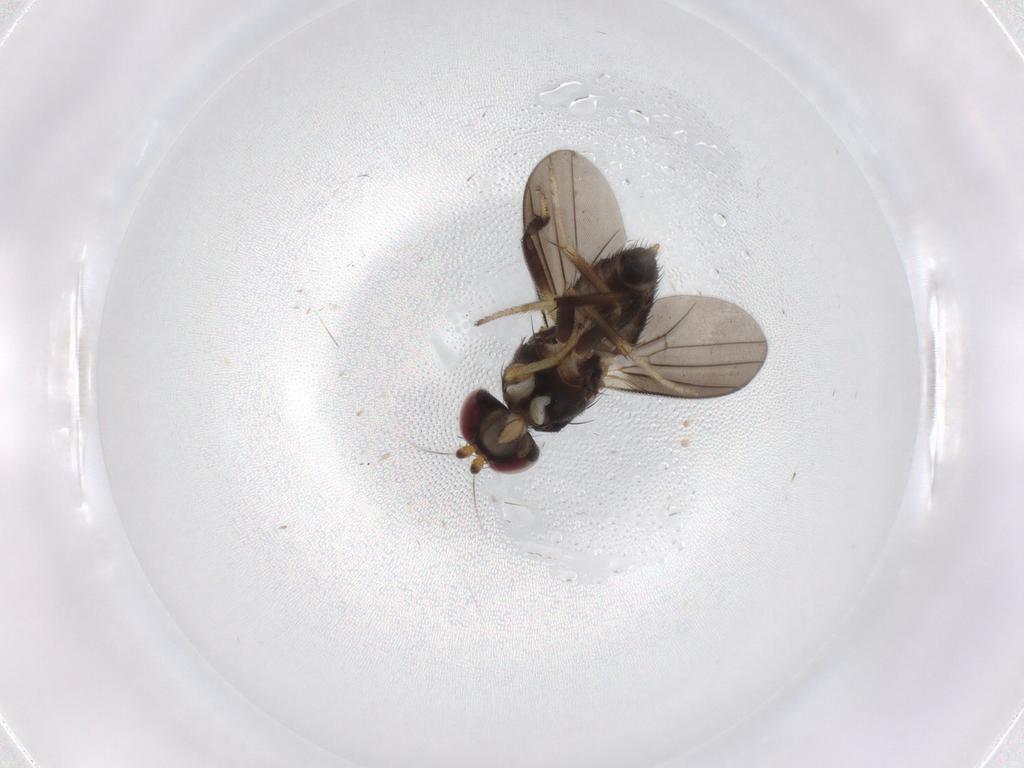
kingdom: Animalia
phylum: Arthropoda
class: Insecta
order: Diptera
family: Clusiidae
